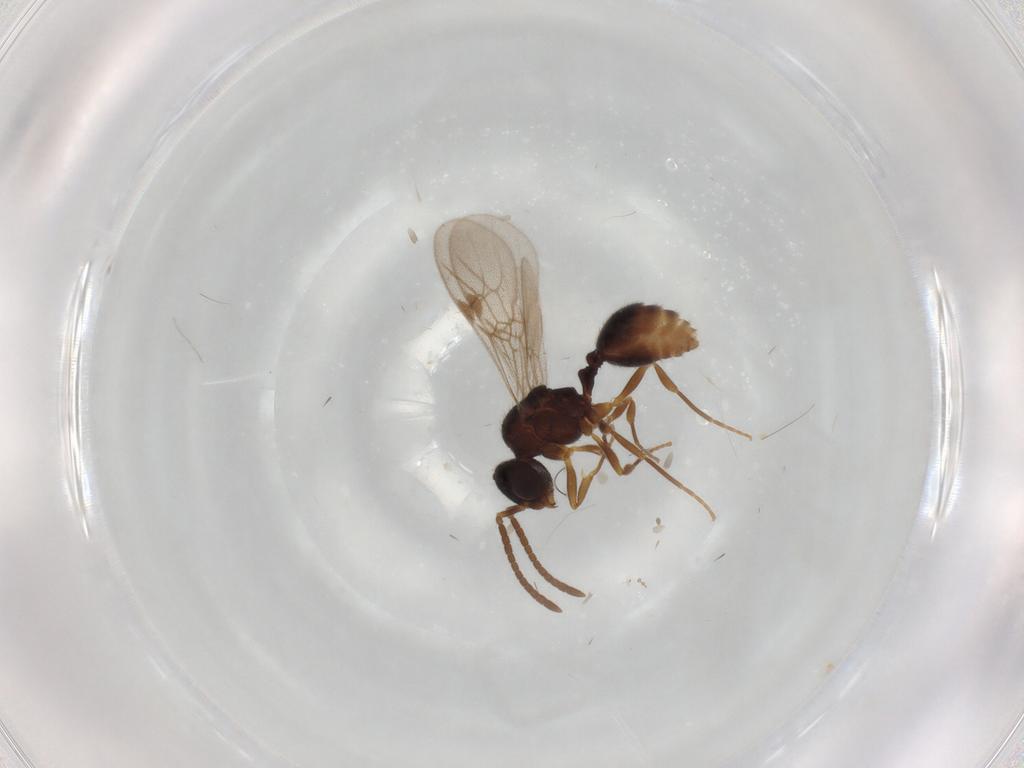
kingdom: Animalia
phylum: Arthropoda
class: Insecta
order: Hymenoptera
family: Formicidae
